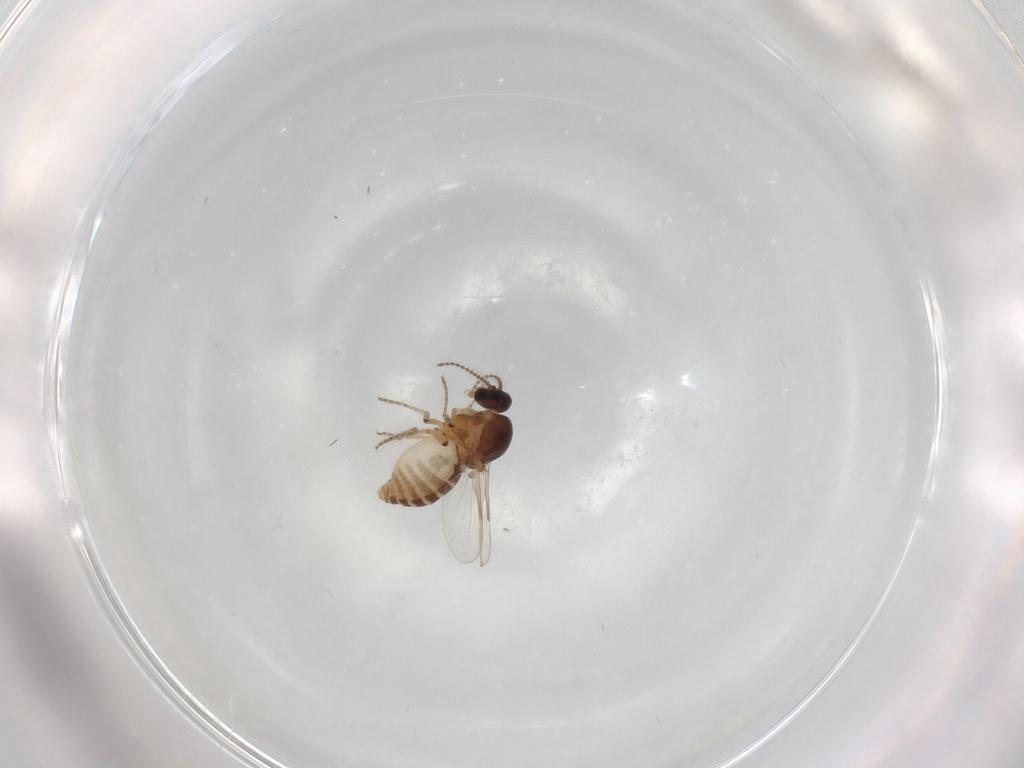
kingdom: Animalia
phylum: Arthropoda
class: Insecta
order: Diptera
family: Ceratopogonidae
